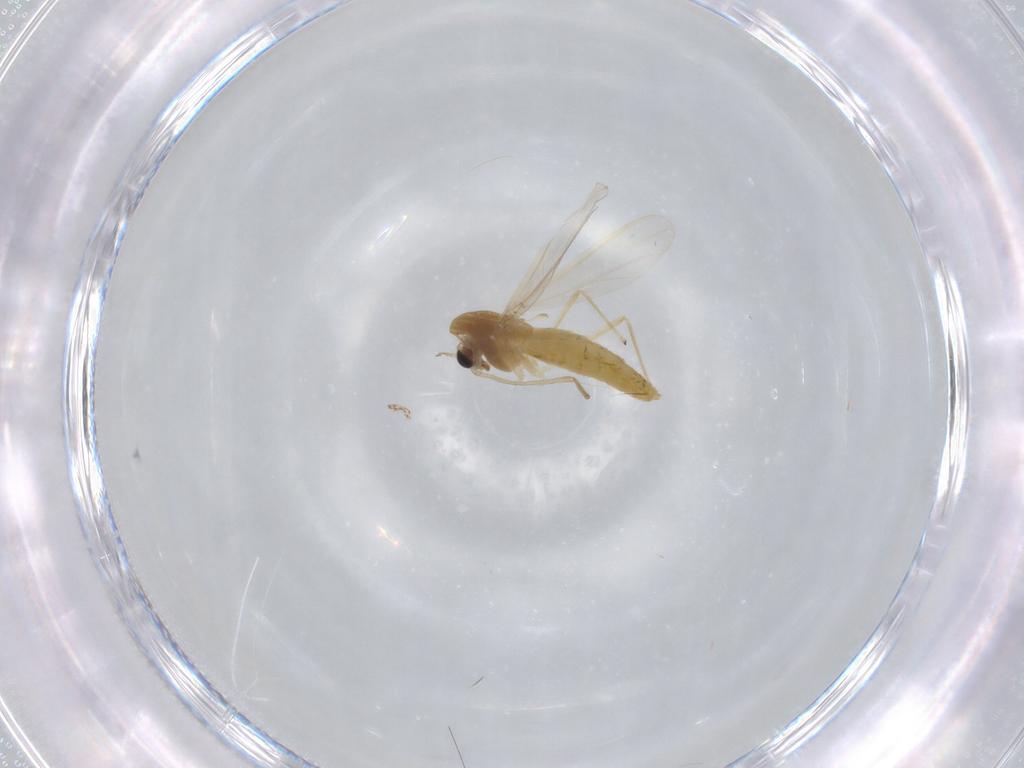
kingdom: Animalia
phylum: Arthropoda
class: Insecta
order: Diptera
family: Chironomidae
